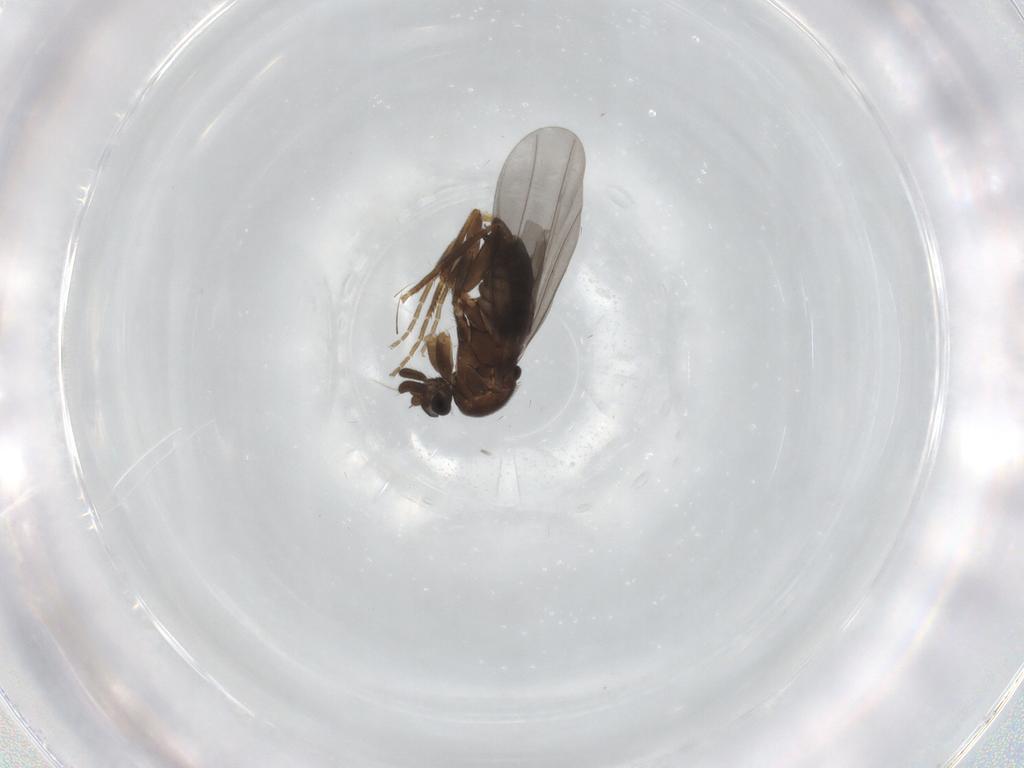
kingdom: Animalia
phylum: Arthropoda
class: Insecta
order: Diptera
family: Phoridae
